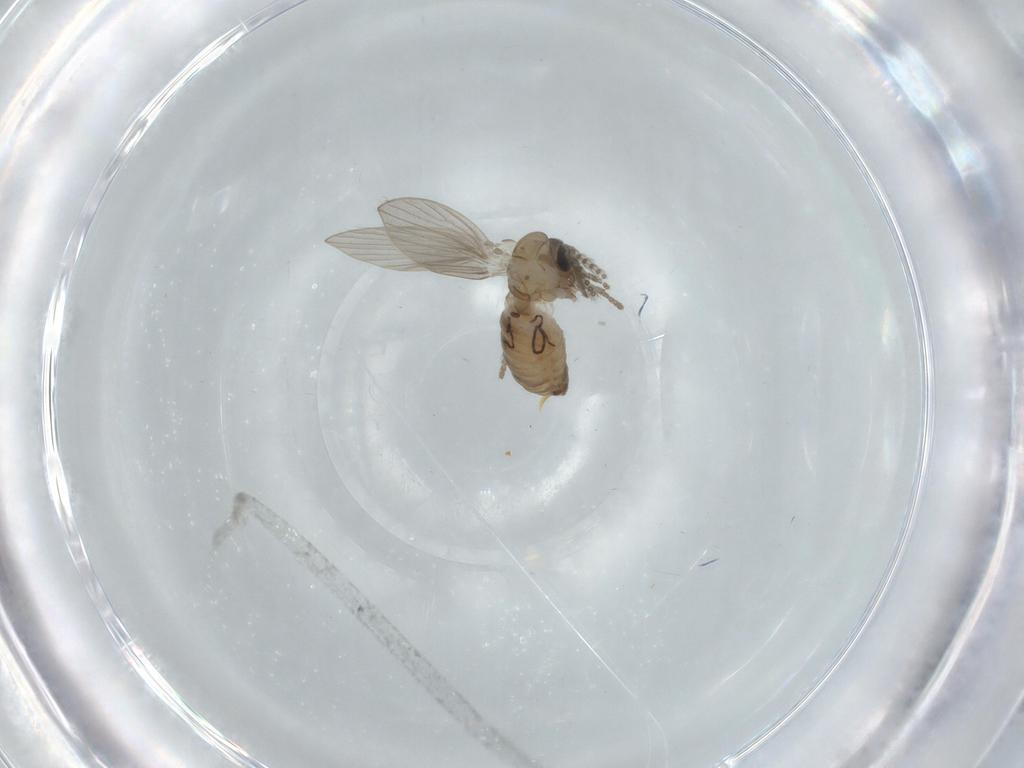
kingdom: Animalia
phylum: Arthropoda
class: Insecta
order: Diptera
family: Psychodidae
